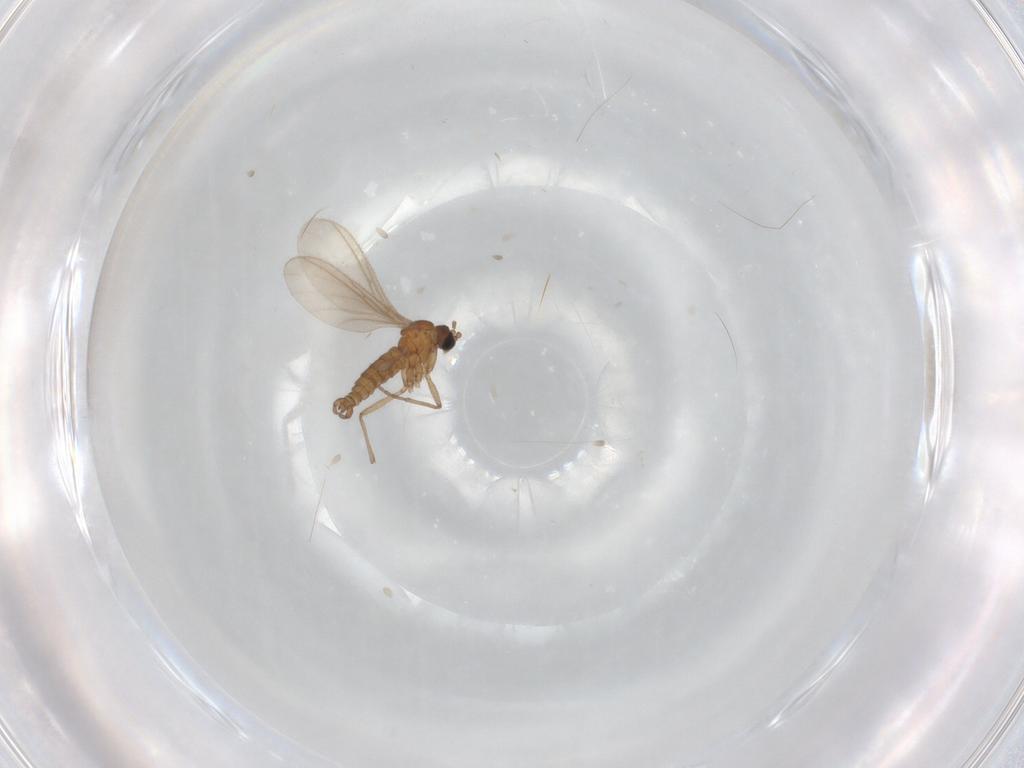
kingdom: Animalia
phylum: Arthropoda
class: Insecta
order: Diptera
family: Sciaridae
